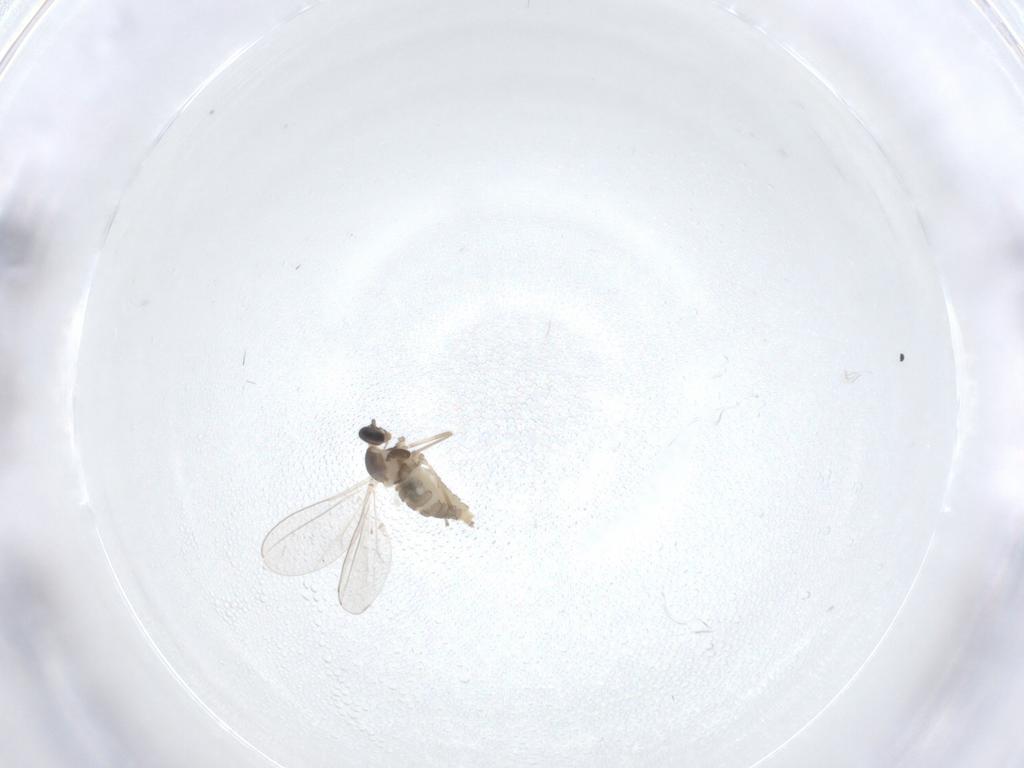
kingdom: Animalia
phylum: Arthropoda
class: Insecta
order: Diptera
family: Cecidomyiidae
